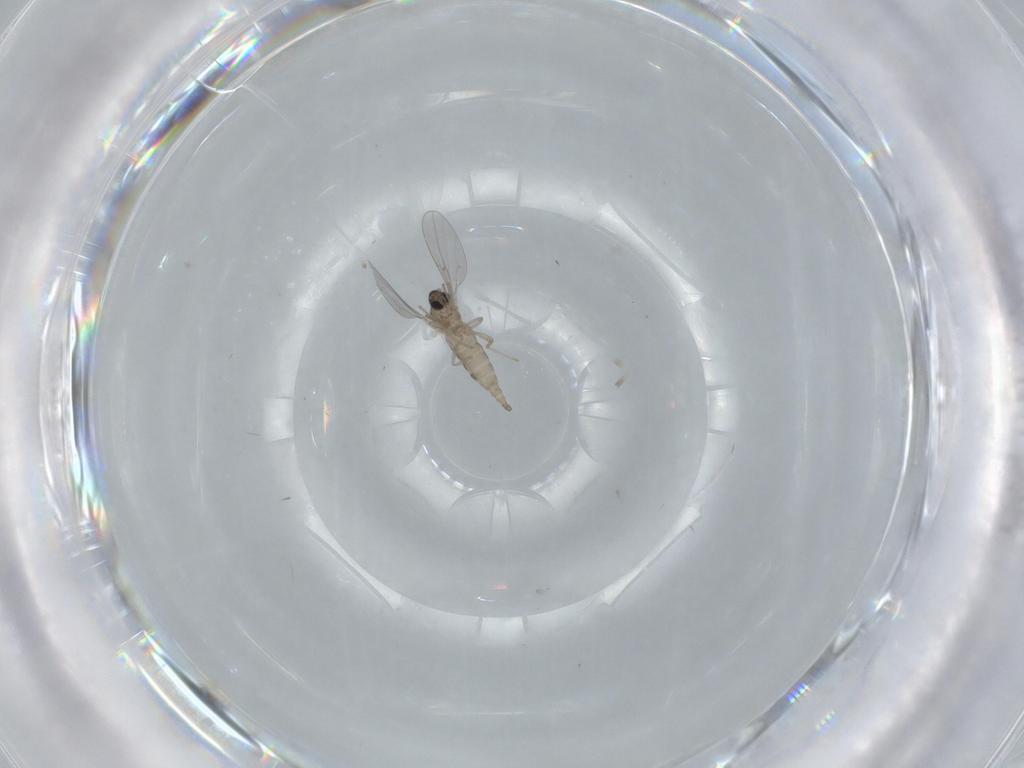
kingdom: Animalia
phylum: Arthropoda
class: Insecta
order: Diptera
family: Cecidomyiidae
